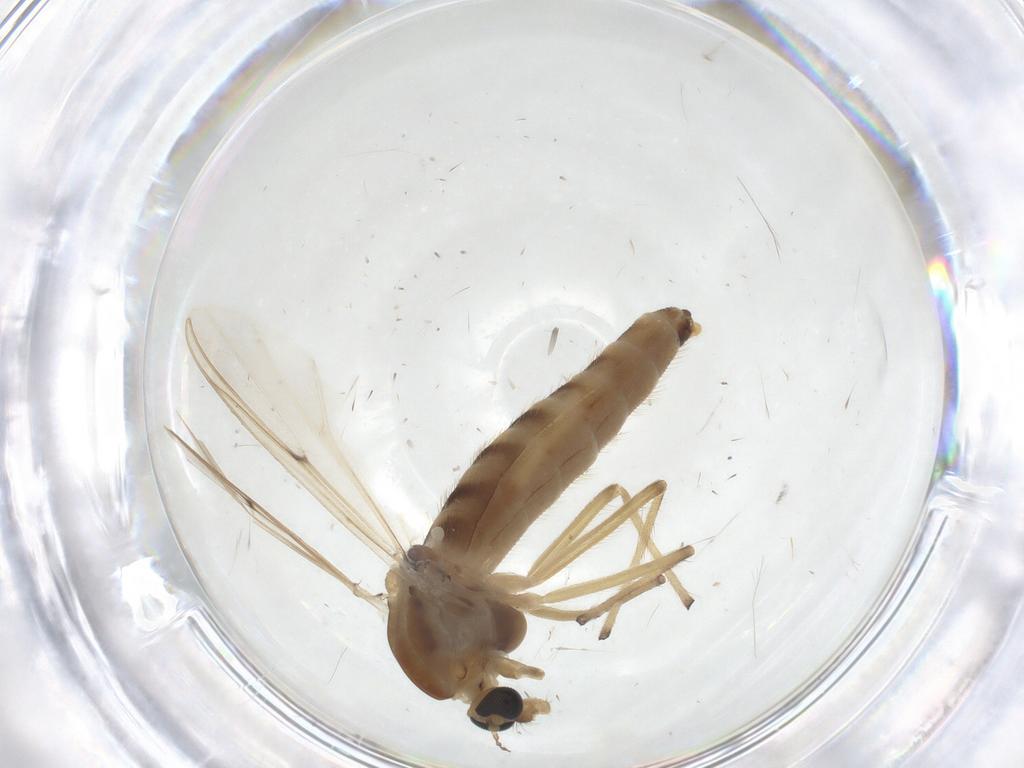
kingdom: Animalia
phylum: Arthropoda
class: Insecta
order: Diptera
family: Chironomidae
